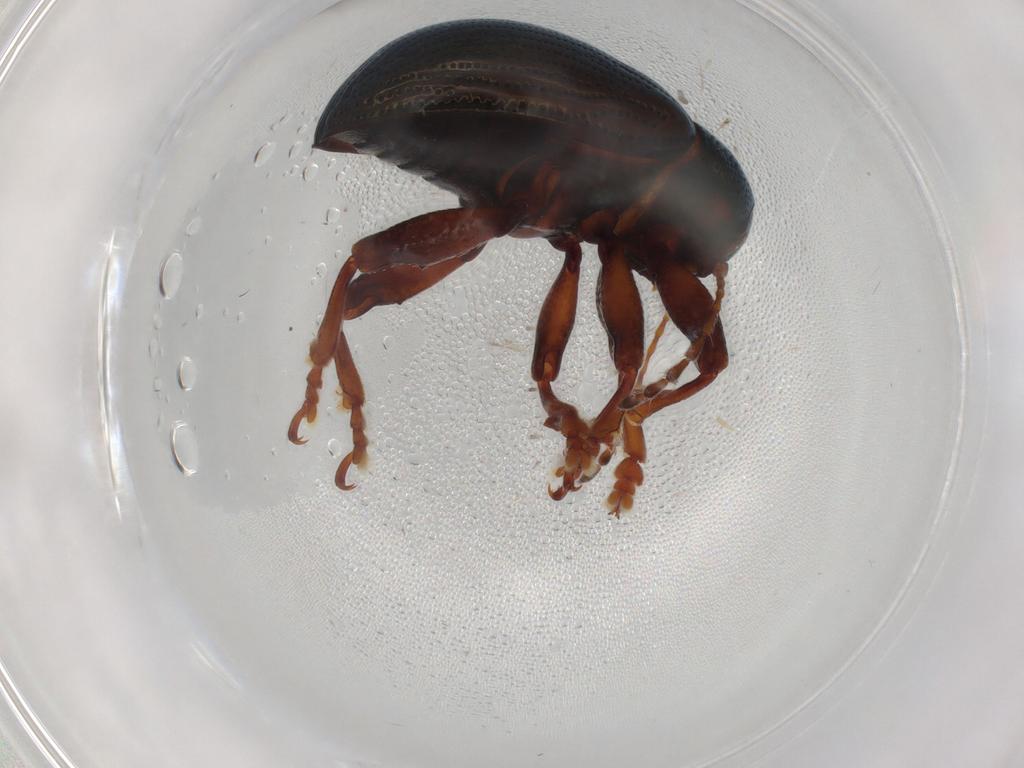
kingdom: Animalia
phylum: Arthropoda
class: Insecta
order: Coleoptera
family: Chrysomelidae
